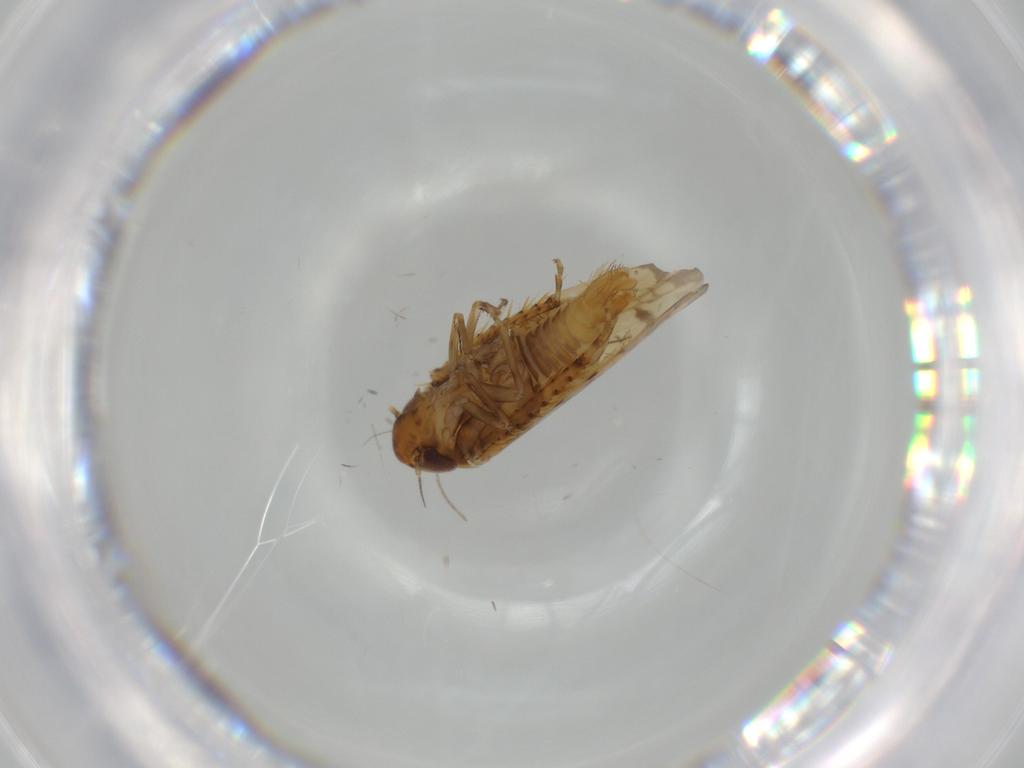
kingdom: Animalia
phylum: Arthropoda
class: Insecta
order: Hemiptera
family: Cicadellidae
